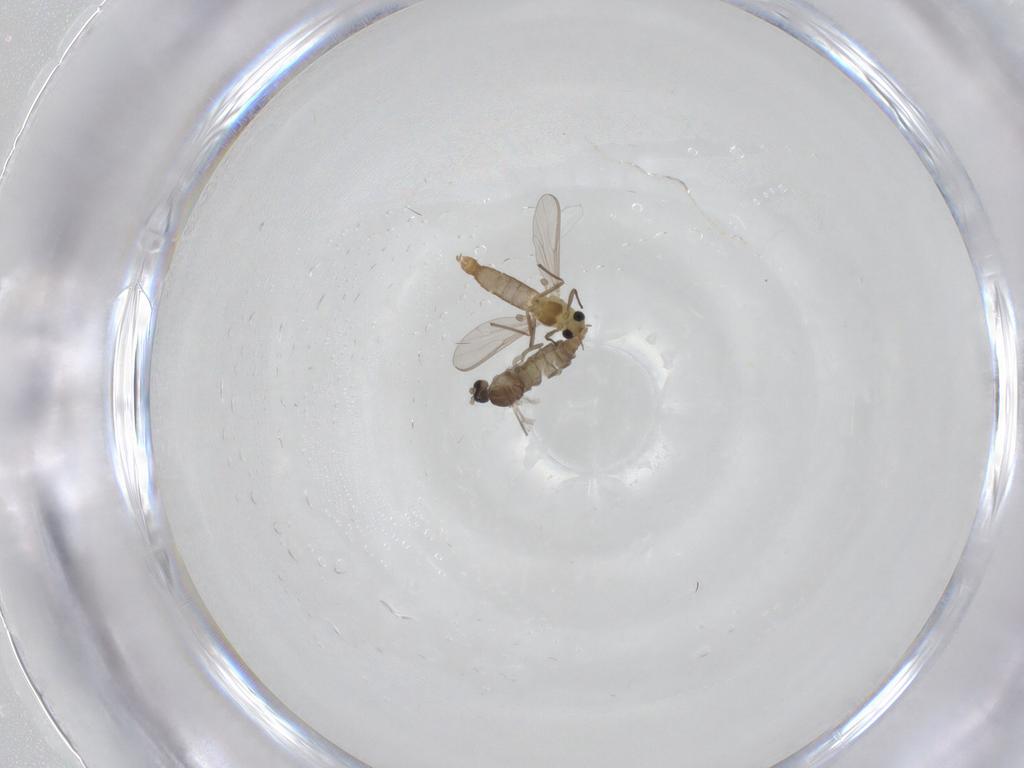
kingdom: Animalia
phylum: Arthropoda
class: Insecta
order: Diptera
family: Chironomidae
